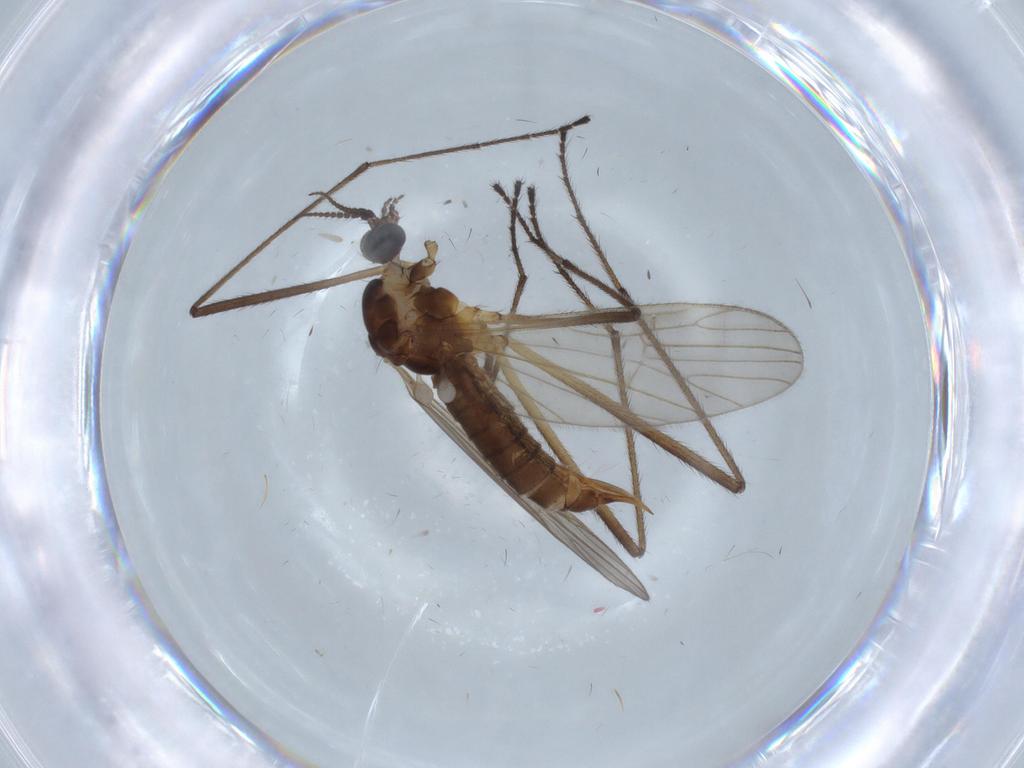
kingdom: Animalia
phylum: Arthropoda
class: Insecta
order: Diptera
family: Agromyzidae
